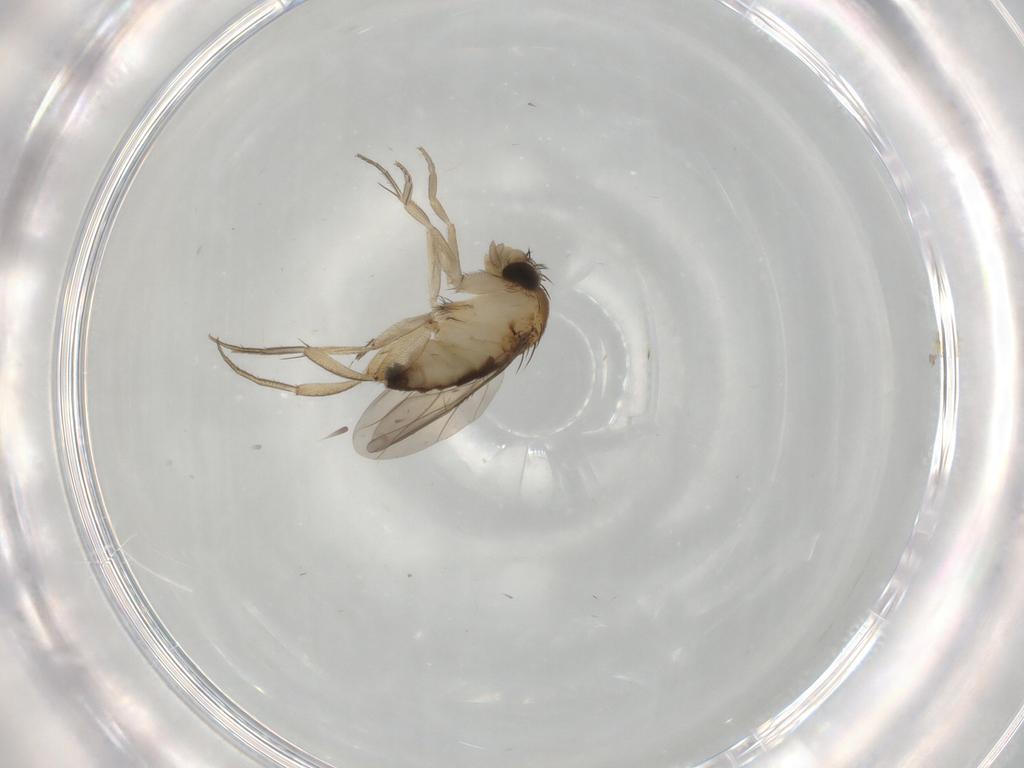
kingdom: Animalia
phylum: Arthropoda
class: Insecta
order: Diptera
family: Phoridae
